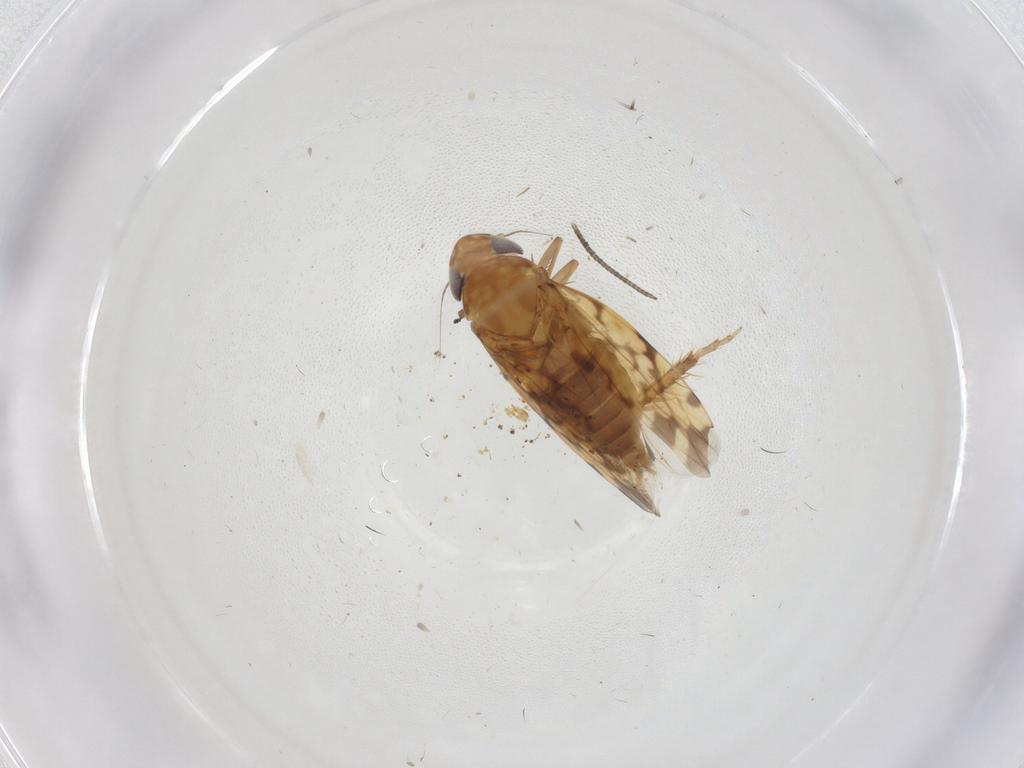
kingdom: Animalia
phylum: Arthropoda
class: Insecta
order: Hemiptera
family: Cicadellidae
